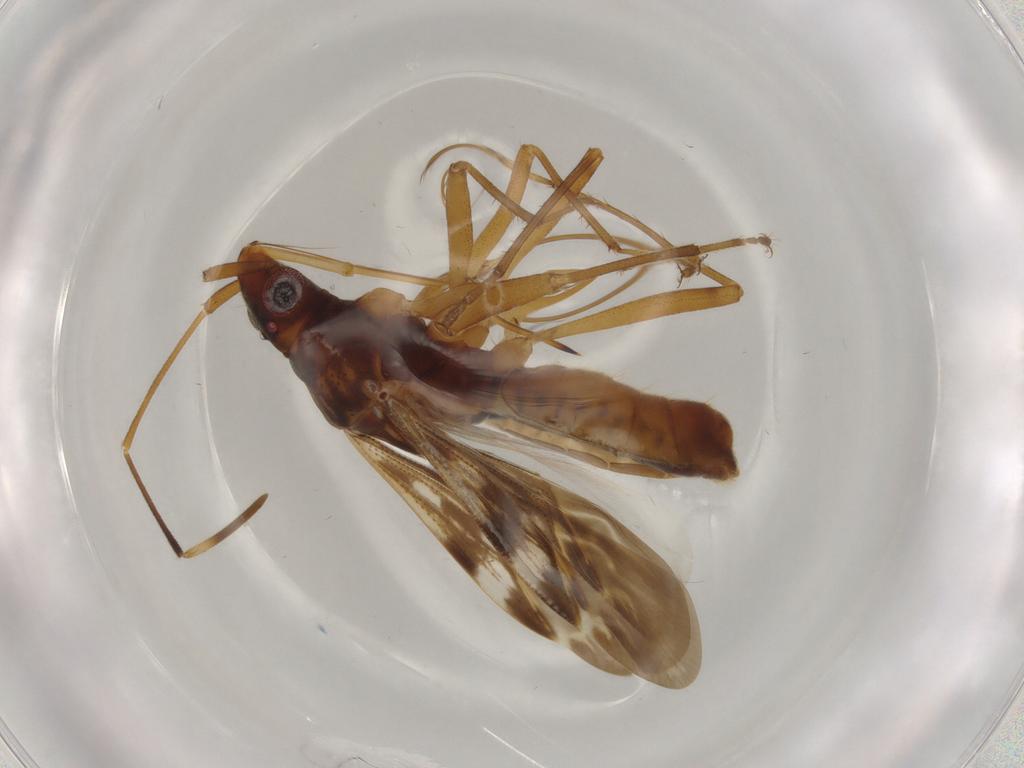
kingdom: Animalia
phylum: Arthropoda
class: Insecta
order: Hemiptera
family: Rhyparochromidae
